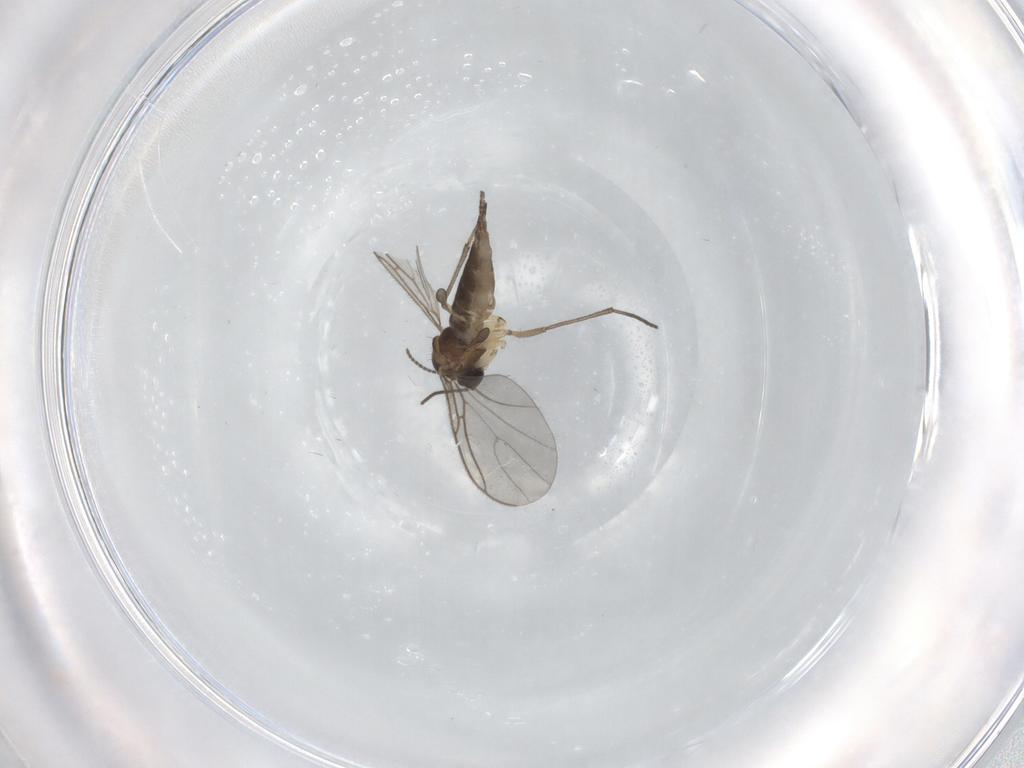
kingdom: Animalia
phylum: Arthropoda
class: Insecta
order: Diptera
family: Sciaridae
